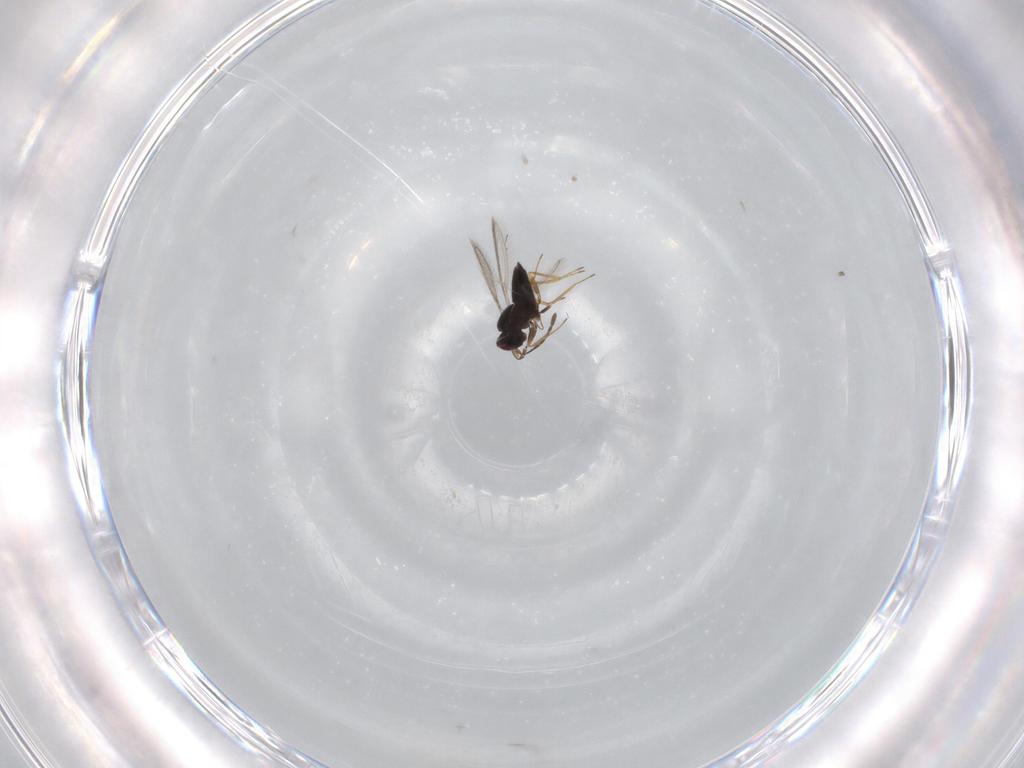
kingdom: Animalia
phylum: Arthropoda
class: Insecta
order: Hymenoptera
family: Mymaridae
